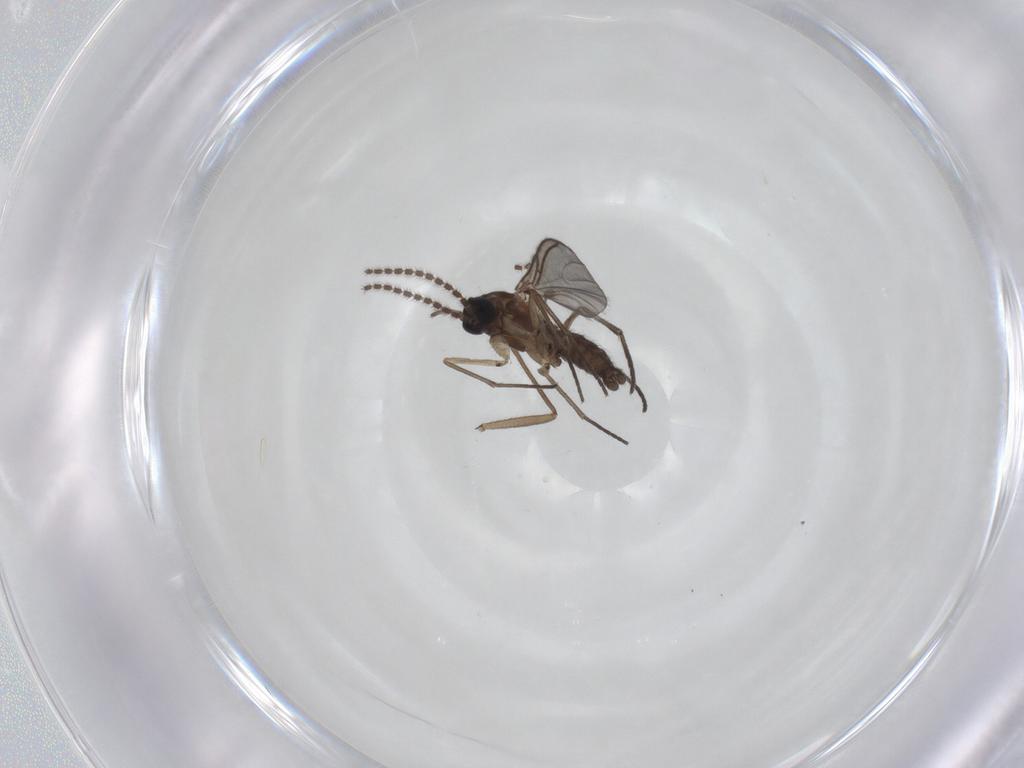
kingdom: Animalia
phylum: Arthropoda
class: Insecta
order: Diptera
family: Sciaridae
